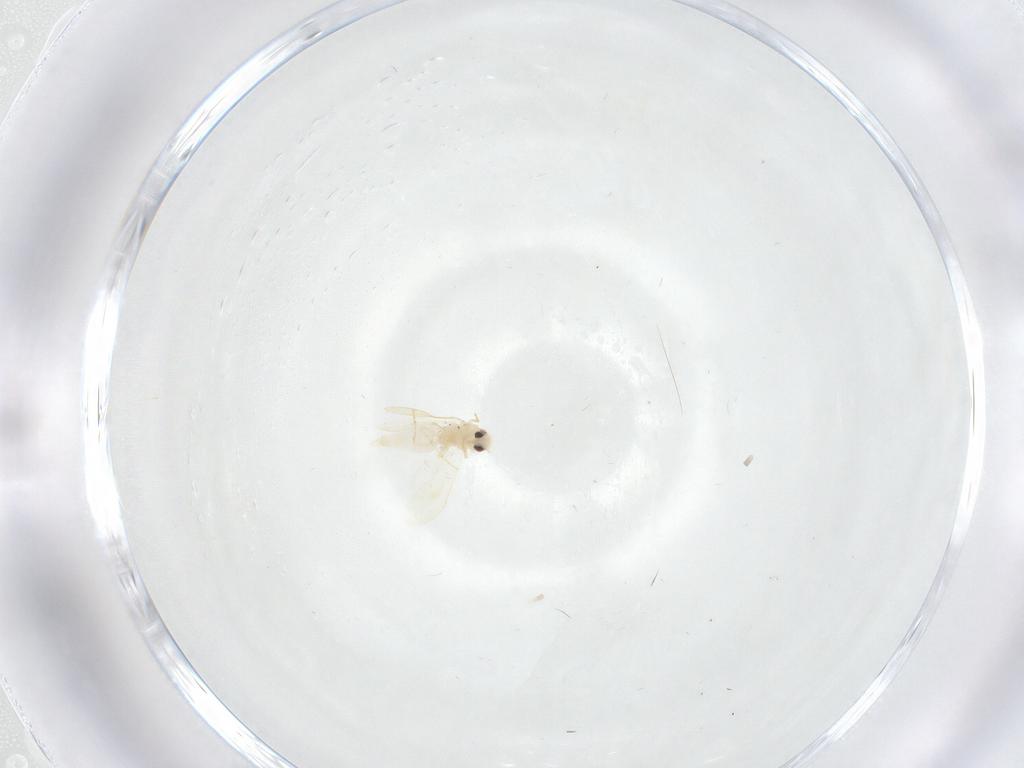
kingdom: Animalia
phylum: Arthropoda
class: Insecta
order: Hemiptera
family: Aleyrodidae
